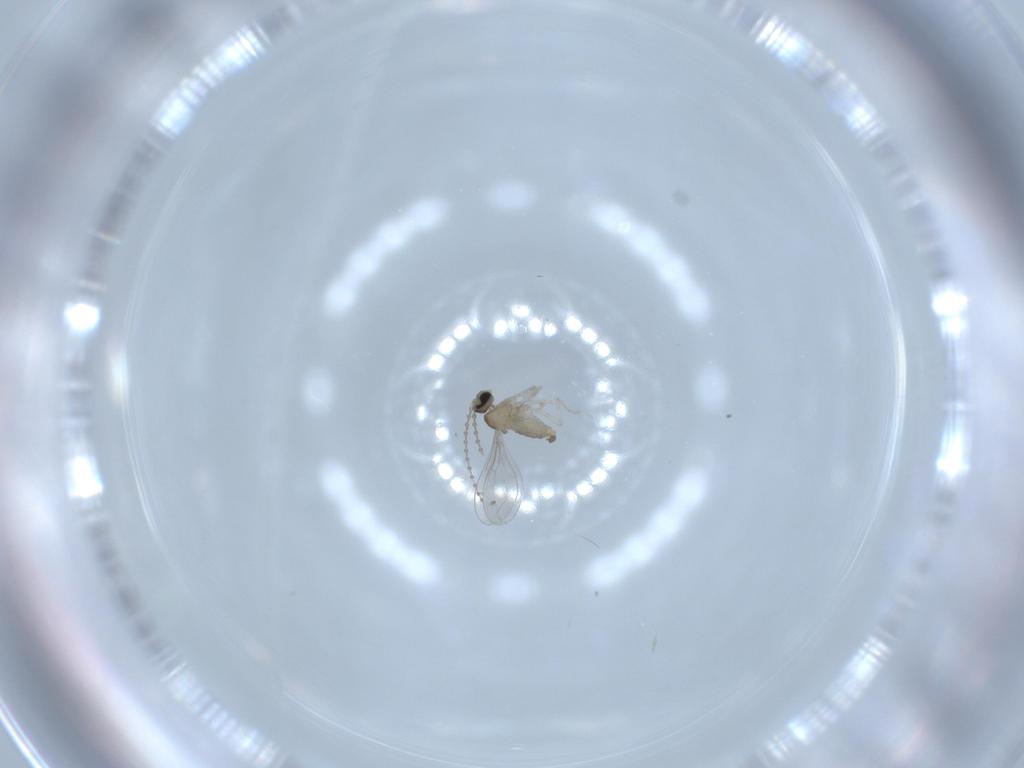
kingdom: Animalia
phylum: Arthropoda
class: Insecta
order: Diptera
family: Cecidomyiidae
